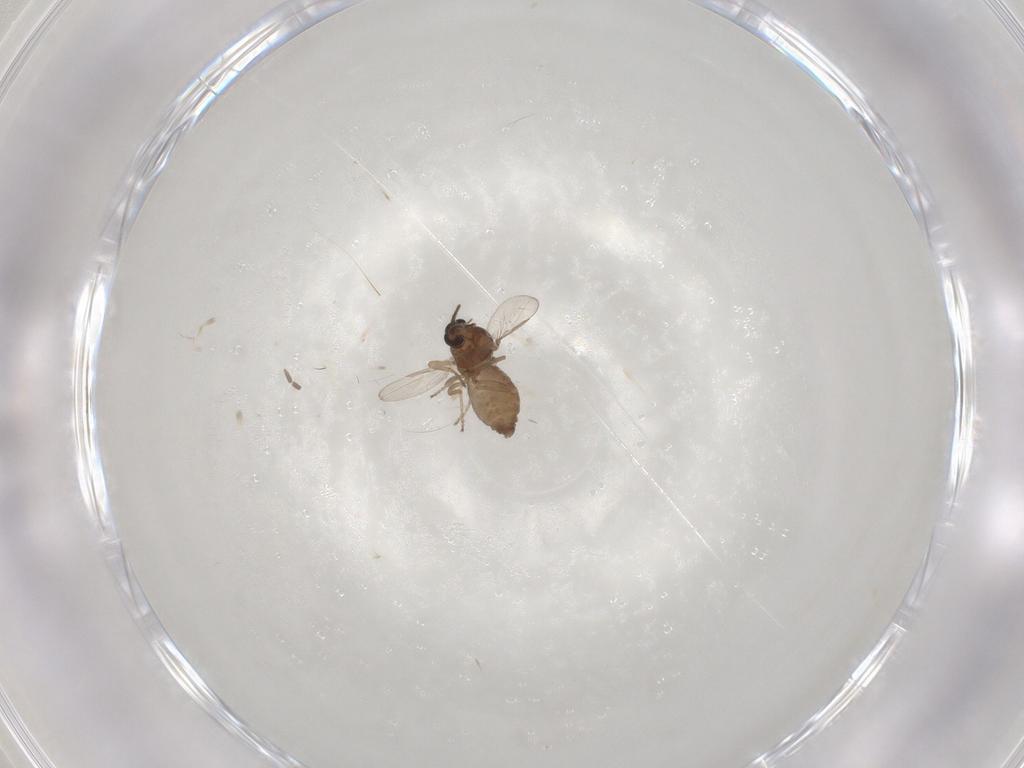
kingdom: Animalia
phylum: Arthropoda
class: Insecta
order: Diptera
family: Ceratopogonidae
